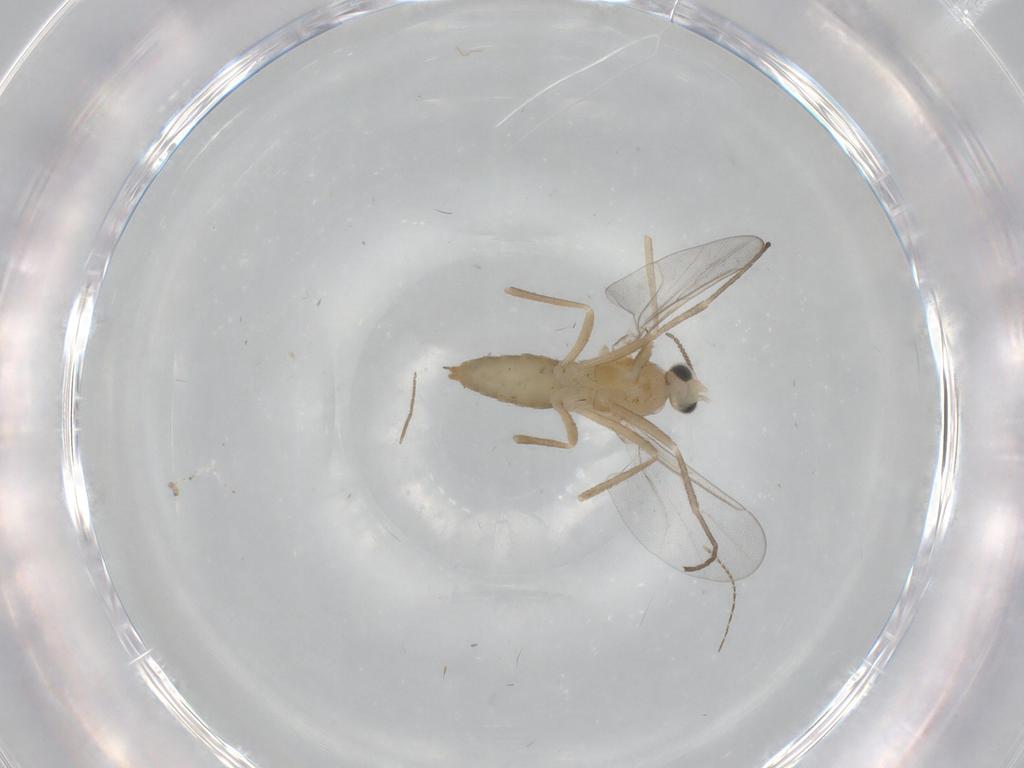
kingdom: Animalia
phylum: Arthropoda
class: Insecta
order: Diptera
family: Cecidomyiidae
